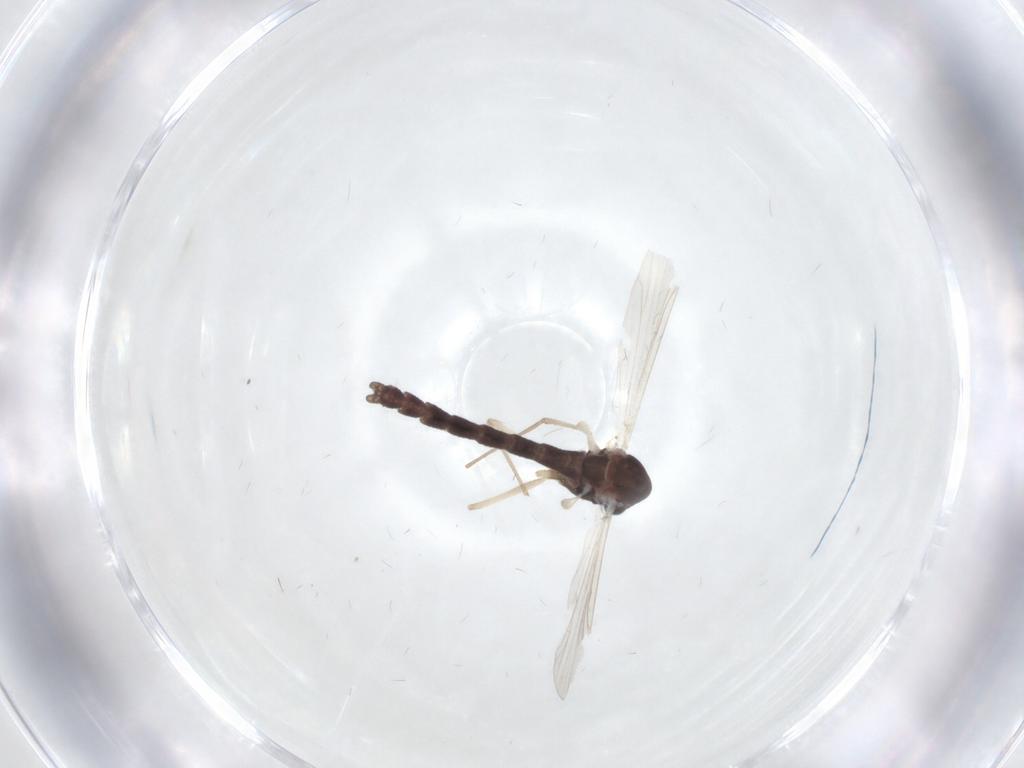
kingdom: Animalia
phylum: Arthropoda
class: Insecta
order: Diptera
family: Chironomidae
